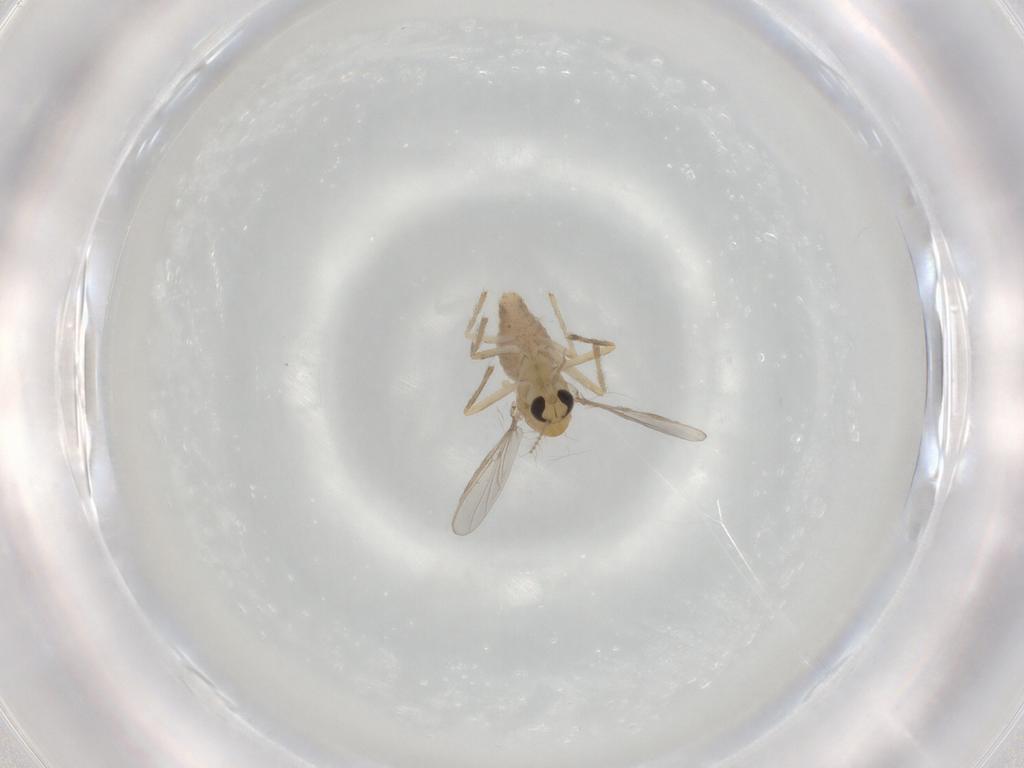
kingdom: Animalia
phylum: Arthropoda
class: Insecta
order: Diptera
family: Chironomidae
